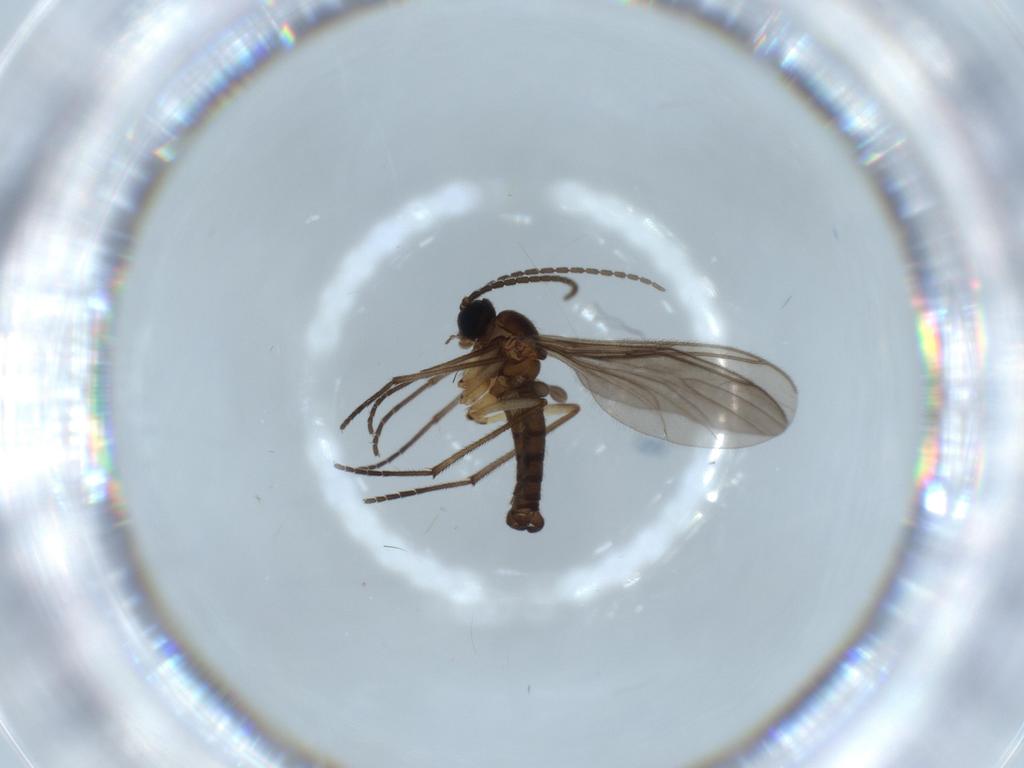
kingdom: Animalia
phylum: Arthropoda
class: Insecta
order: Diptera
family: Sciaridae
